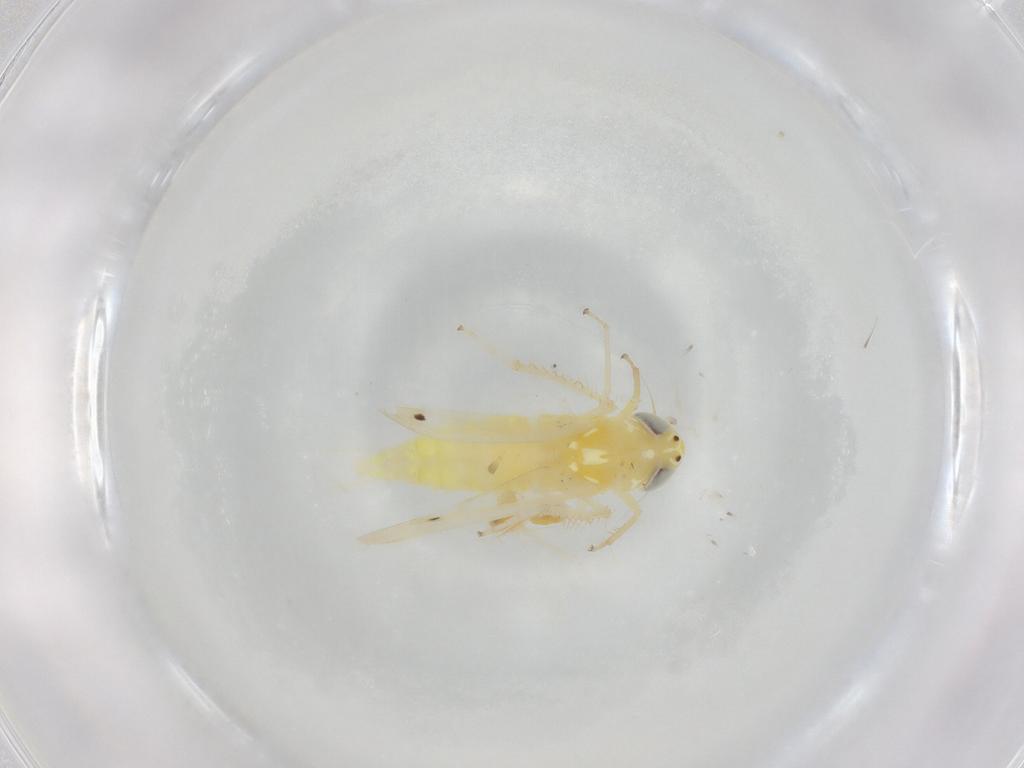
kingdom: Animalia
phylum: Arthropoda
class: Insecta
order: Hemiptera
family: Cicadellidae
